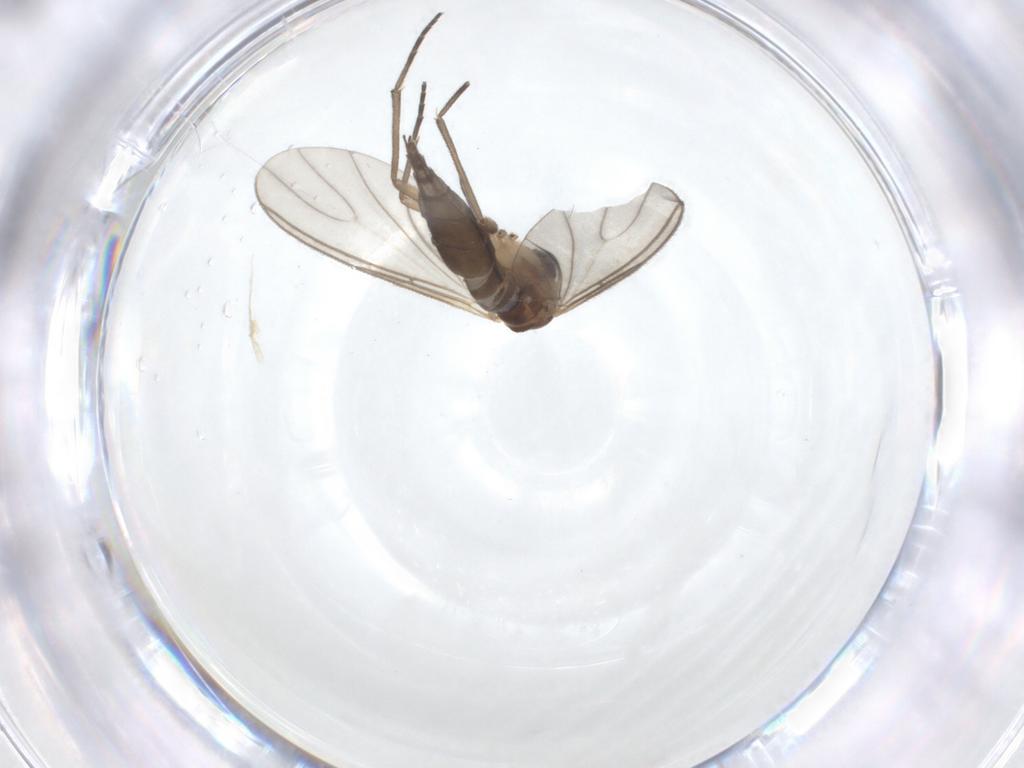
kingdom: Animalia
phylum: Arthropoda
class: Insecta
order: Diptera
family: Sciaridae
